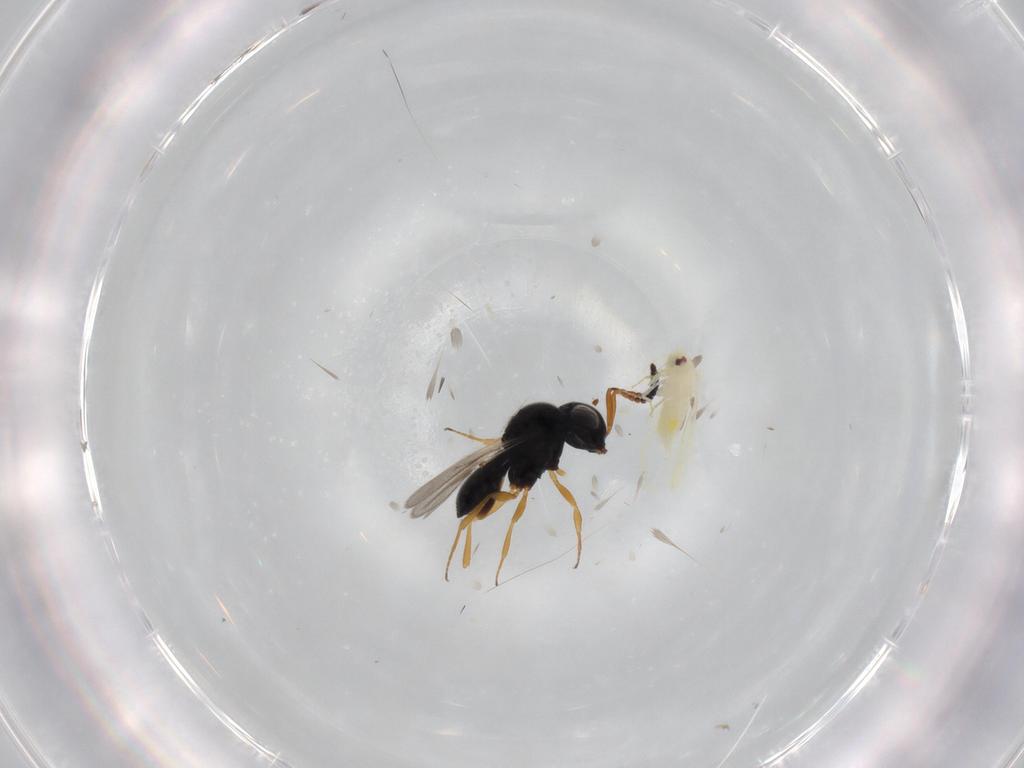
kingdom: Animalia
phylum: Arthropoda
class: Insecta
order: Hemiptera
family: Aleyrodidae
